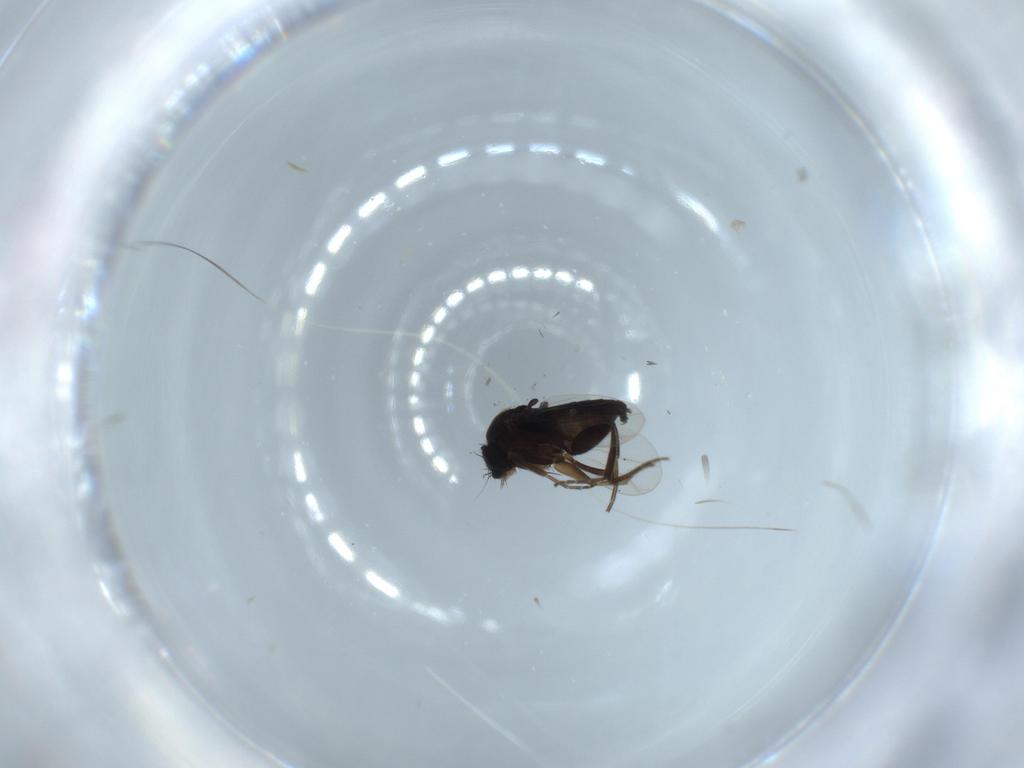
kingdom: Animalia
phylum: Arthropoda
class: Insecta
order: Diptera
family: Phoridae
